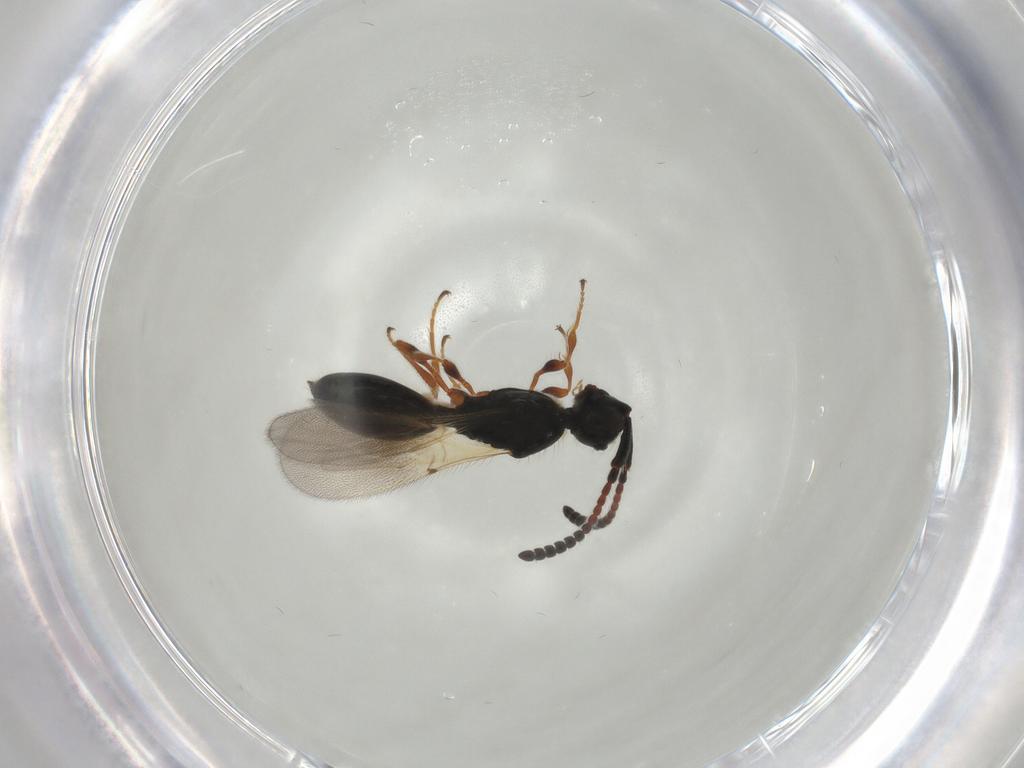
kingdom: Animalia
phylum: Arthropoda
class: Insecta
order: Hymenoptera
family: Diapriidae
